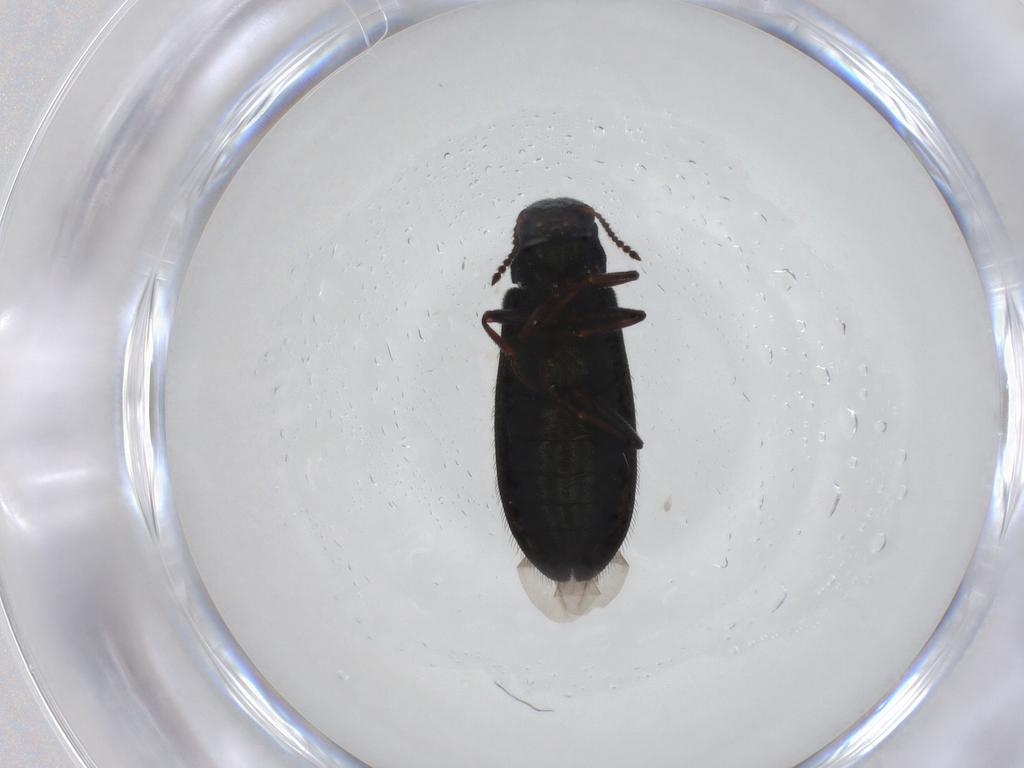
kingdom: Animalia
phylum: Arthropoda
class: Insecta
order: Coleoptera
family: Melyridae
